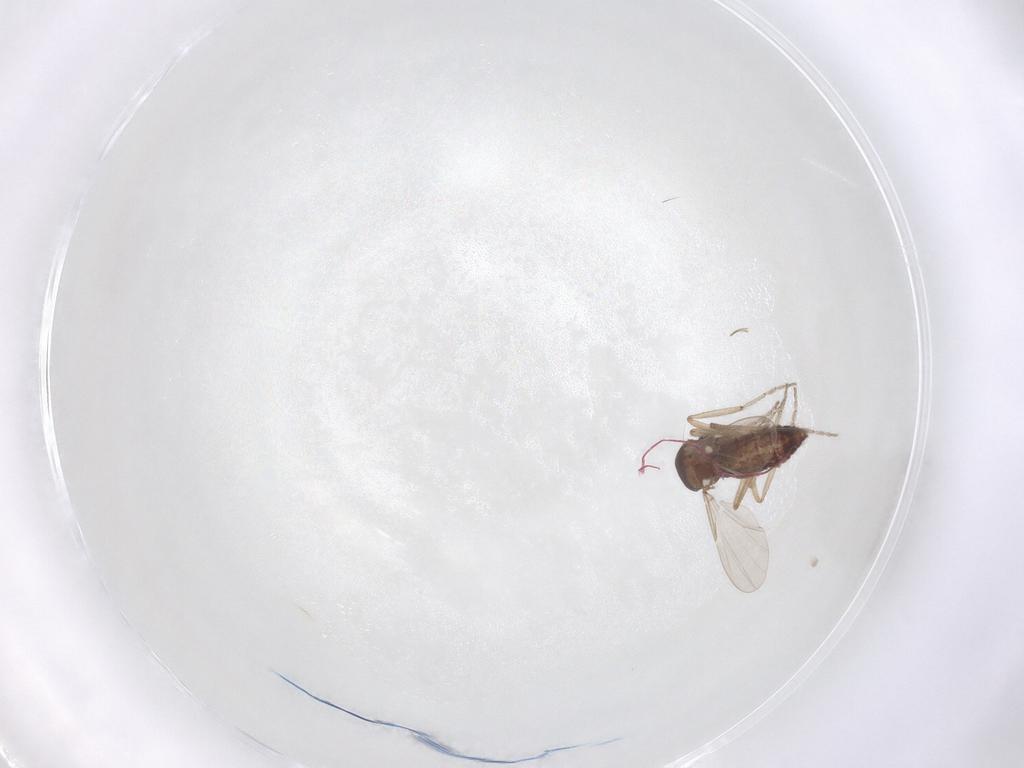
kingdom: Animalia
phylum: Arthropoda
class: Insecta
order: Diptera
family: Ceratopogonidae
